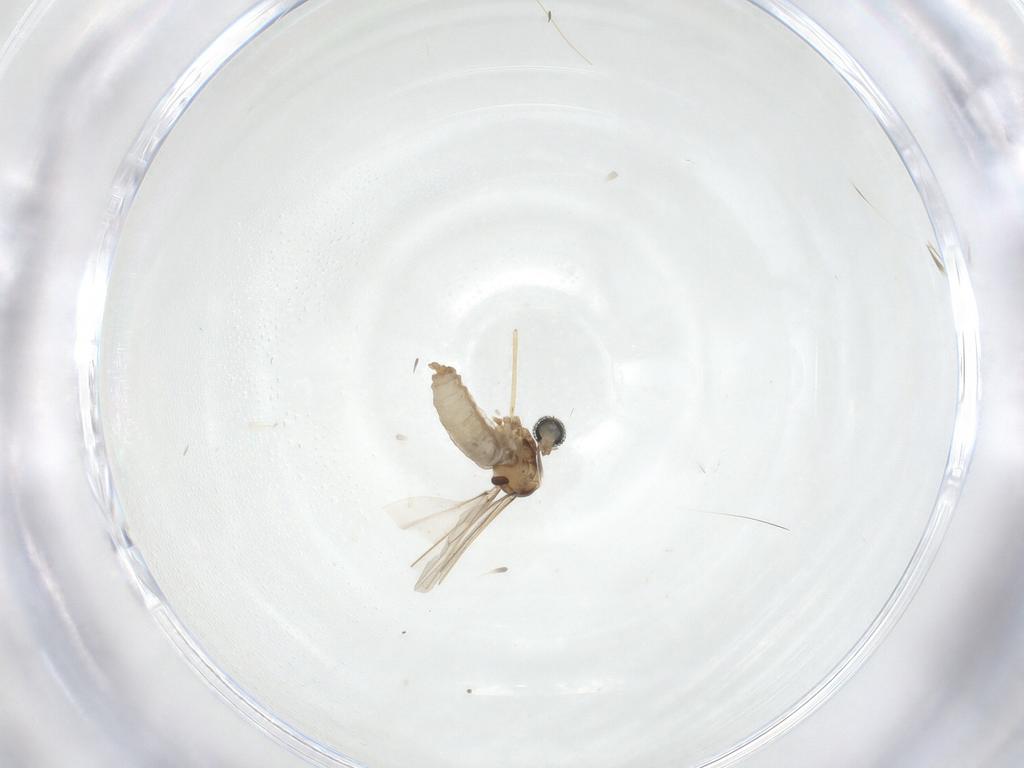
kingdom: Animalia
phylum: Arthropoda
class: Insecta
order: Diptera
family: Cecidomyiidae
